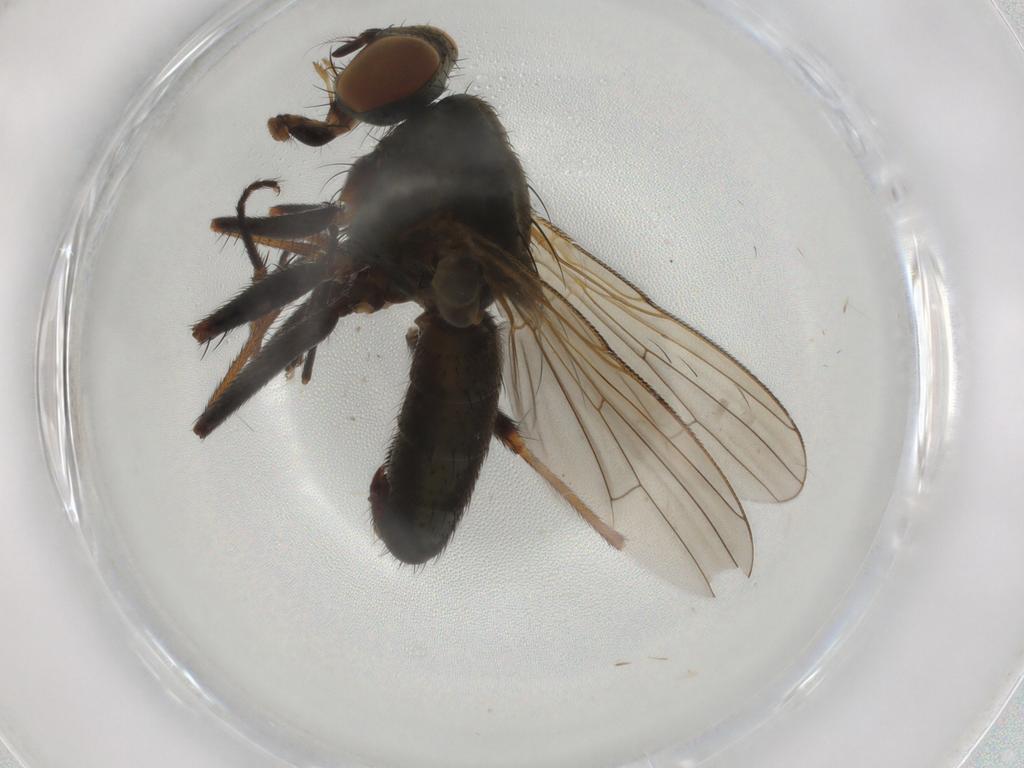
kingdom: Animalia
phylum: Arthropoda
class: Insecta
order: Diptera
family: Muscidae
